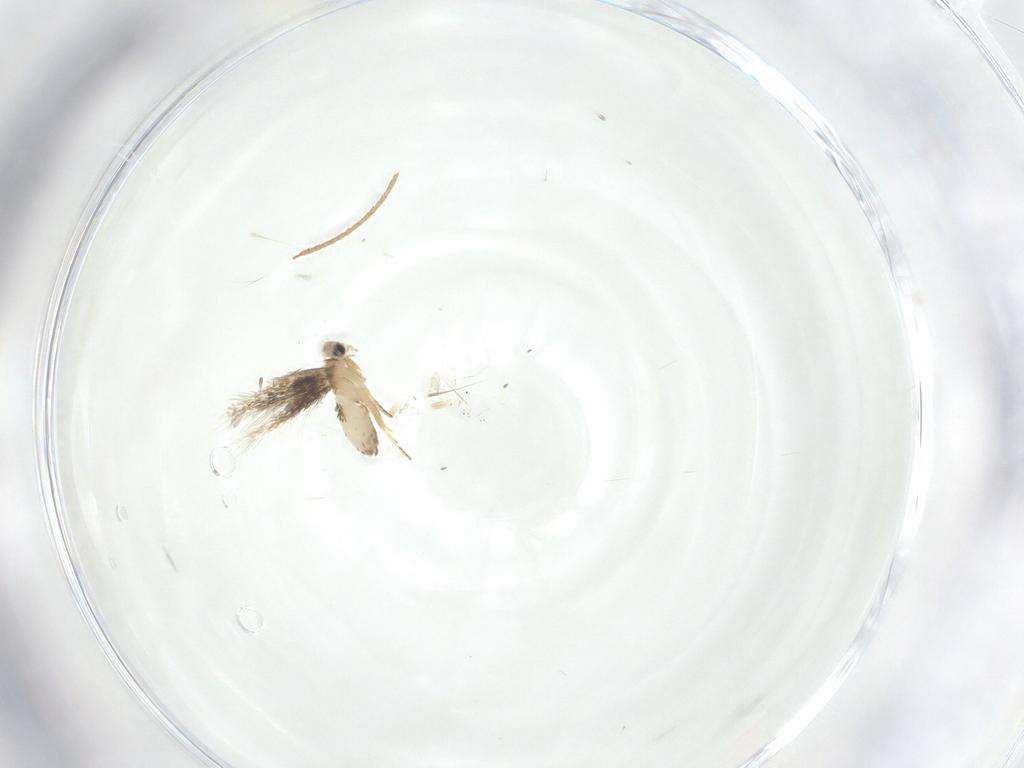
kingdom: Animalia
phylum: Arthropoda
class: Insecta
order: Lepidoptera
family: Nepticulidae
